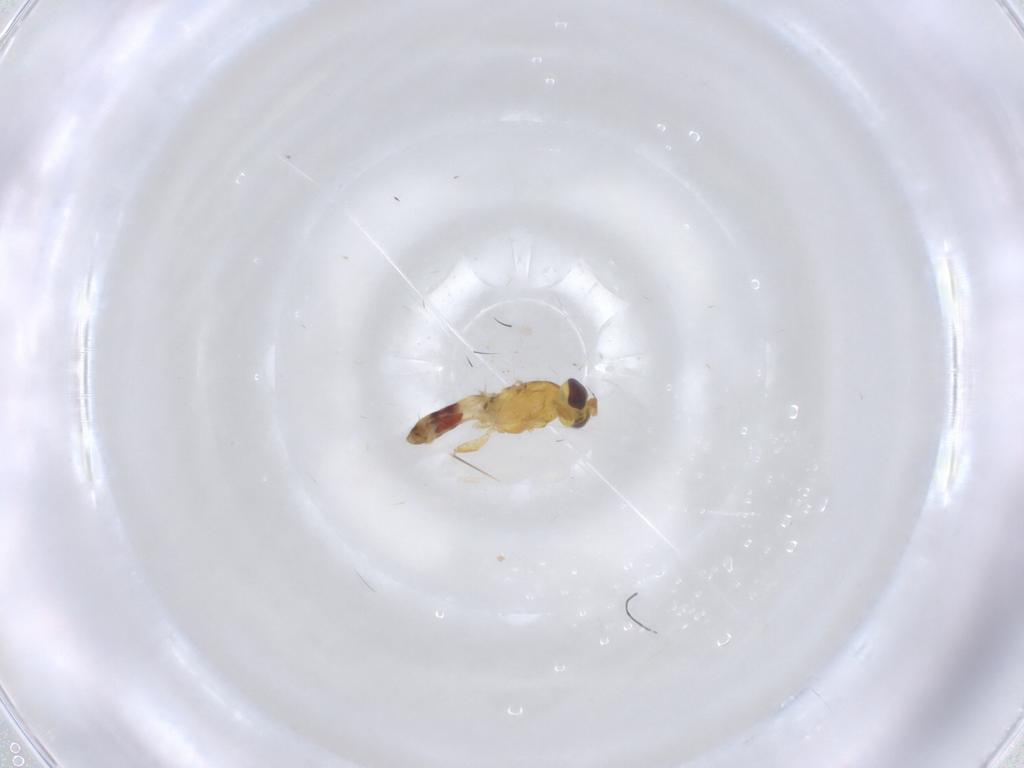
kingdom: Animalia
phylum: Arthropoda
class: Insecta
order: Diptera
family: Periscelididae
